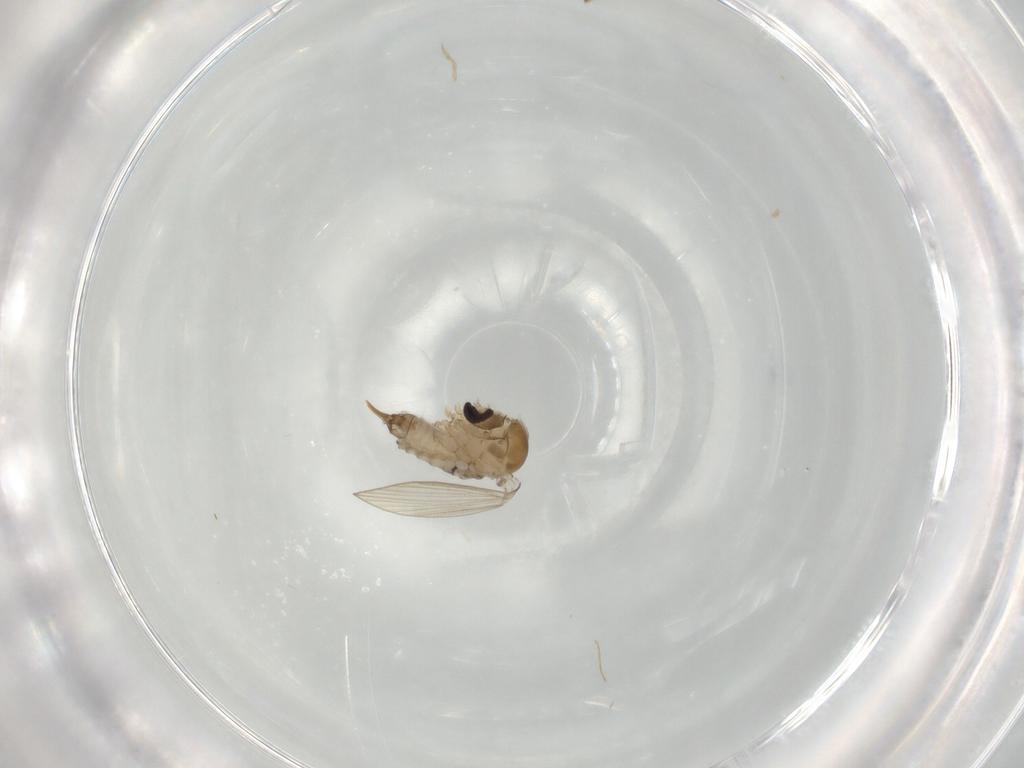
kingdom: Animalia
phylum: Arthropoda
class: Insecta
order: Diptera
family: Psychodidae
